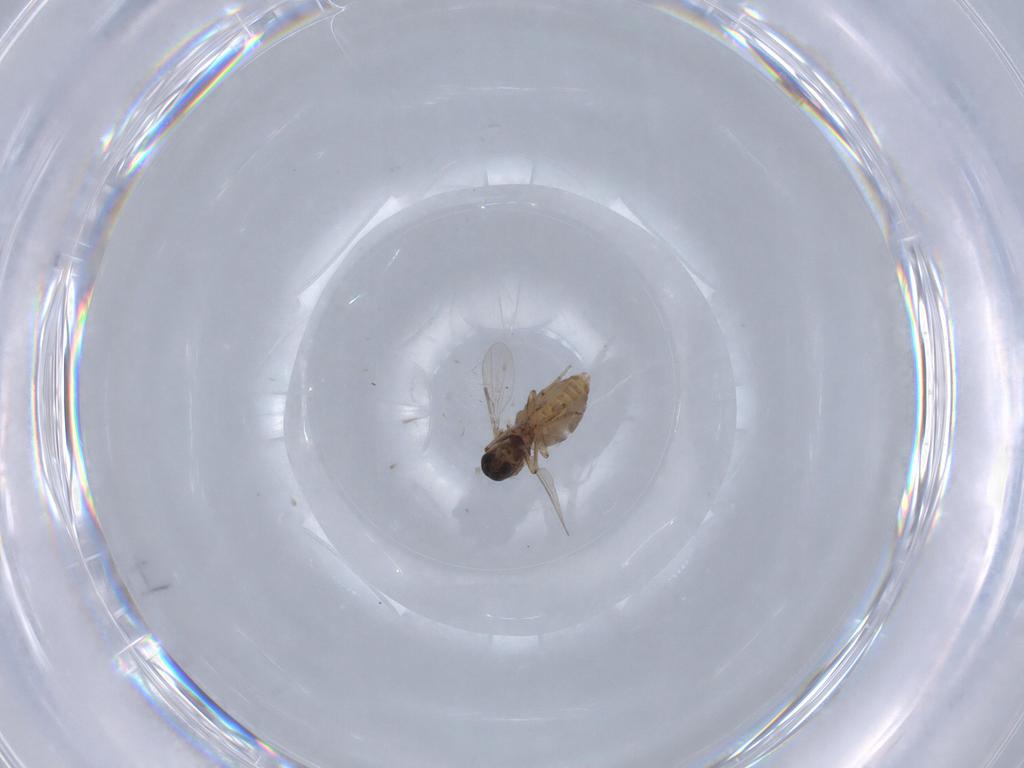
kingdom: Animalia
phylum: Arthropoda
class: Insecta
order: Diptera
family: Ceratopogonidae
